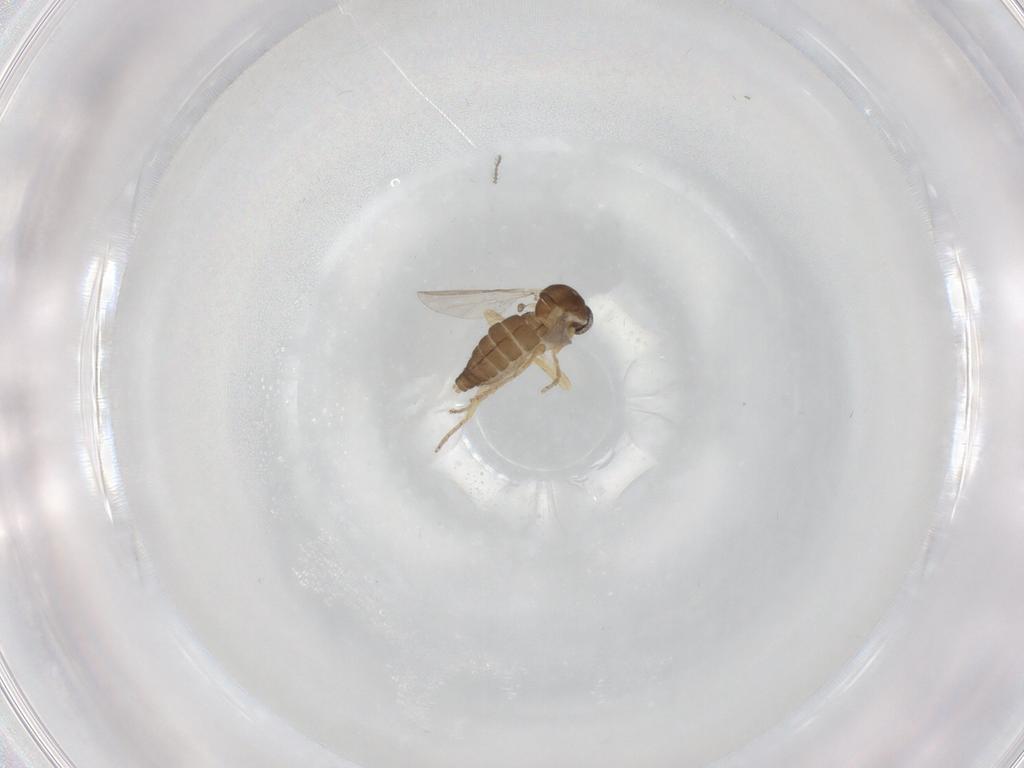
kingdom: Animalia
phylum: Arthropoda
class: Insecta
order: Diptera
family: Ceratopogonidae
